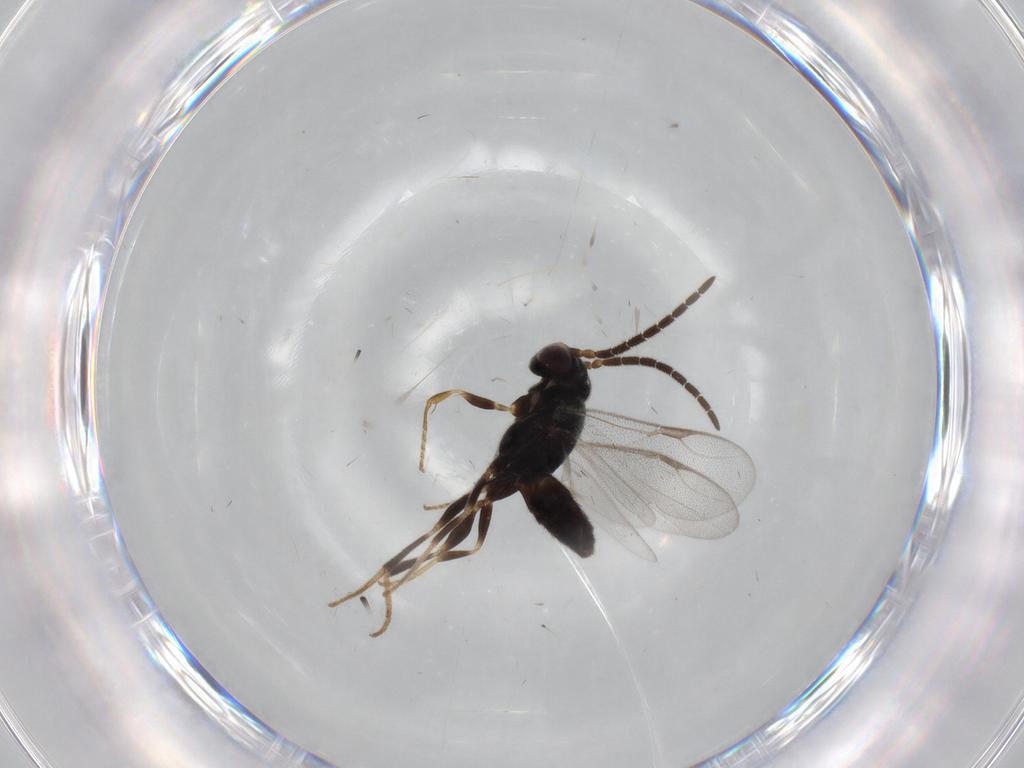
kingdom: Animalia
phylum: Arthropoda
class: Insecta
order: Hymenoptera
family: Dryinidae
